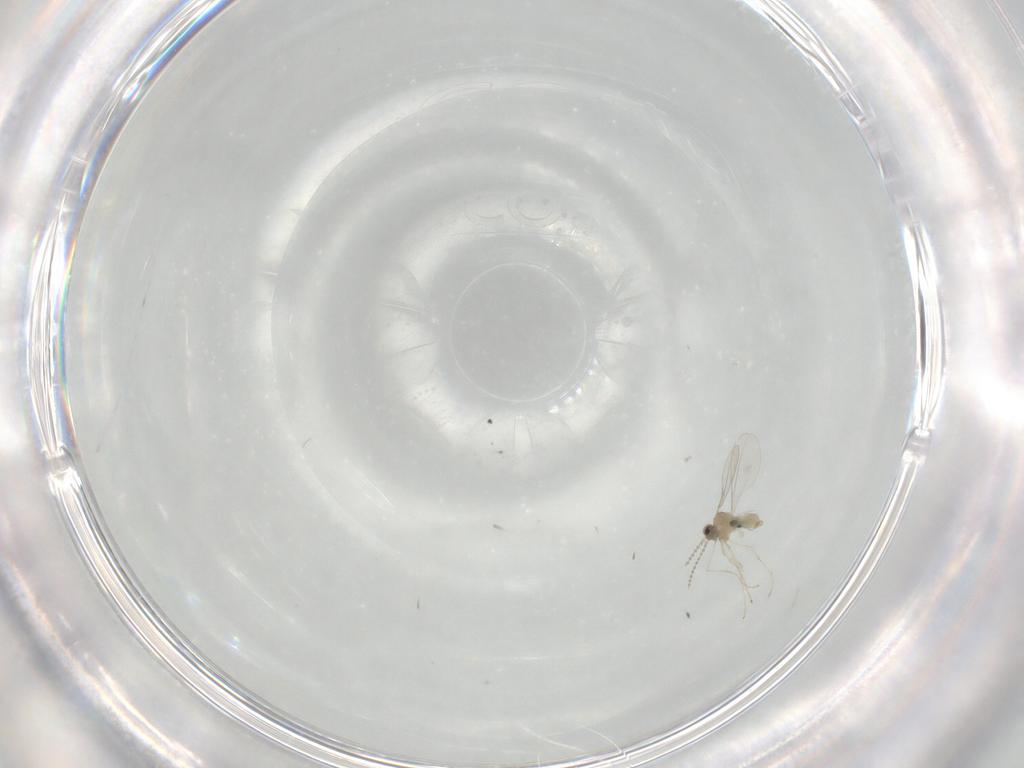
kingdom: Animalia
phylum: Arthropoda
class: Insecta
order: Diptera
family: Cecidomyiidae
